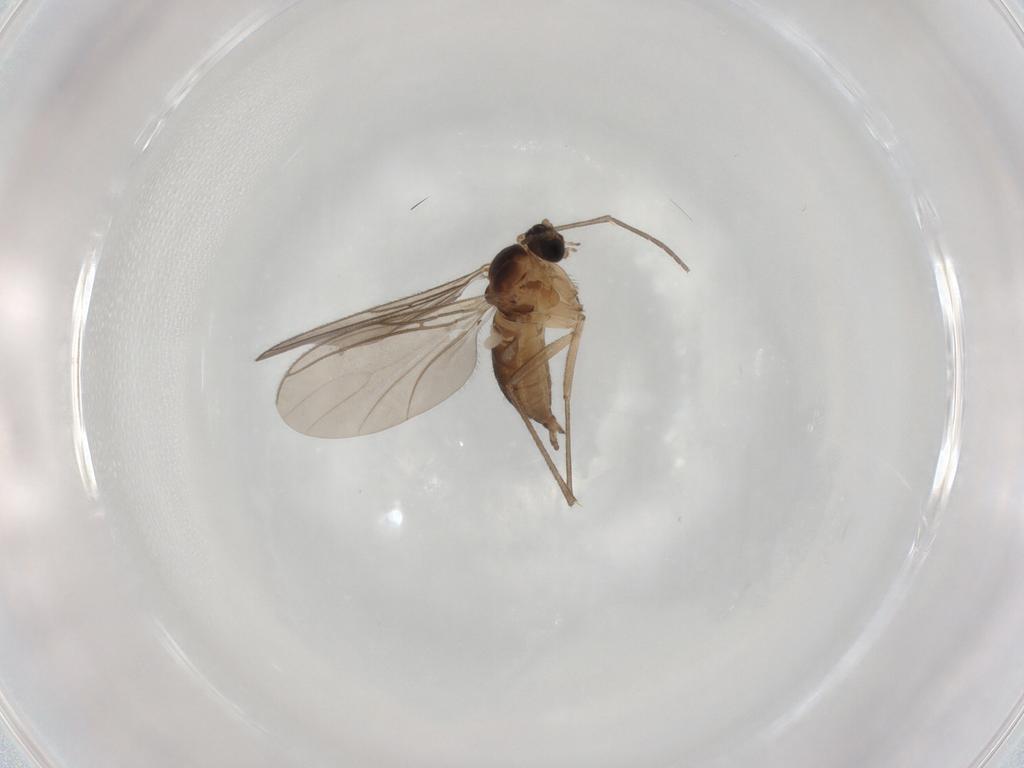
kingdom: Animalia
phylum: Arthropoda
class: Insecta
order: Diptera
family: Sciaridae
